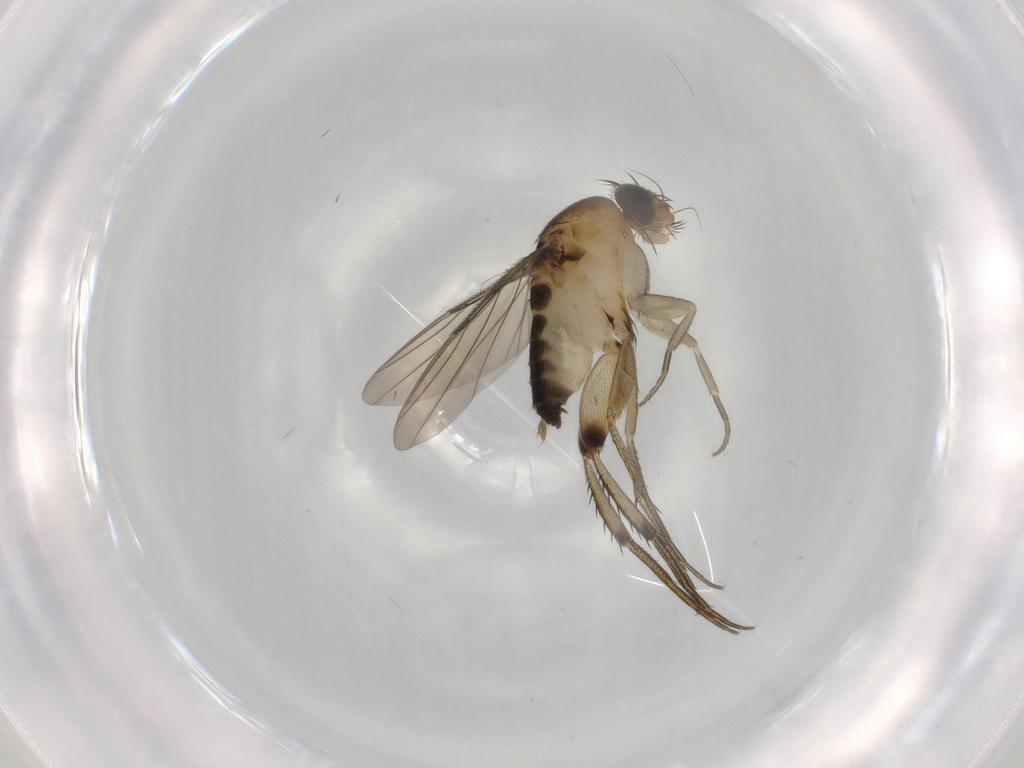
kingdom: Animalia
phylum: Arthropoda
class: Insecta
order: Diptera
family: Phoridae
